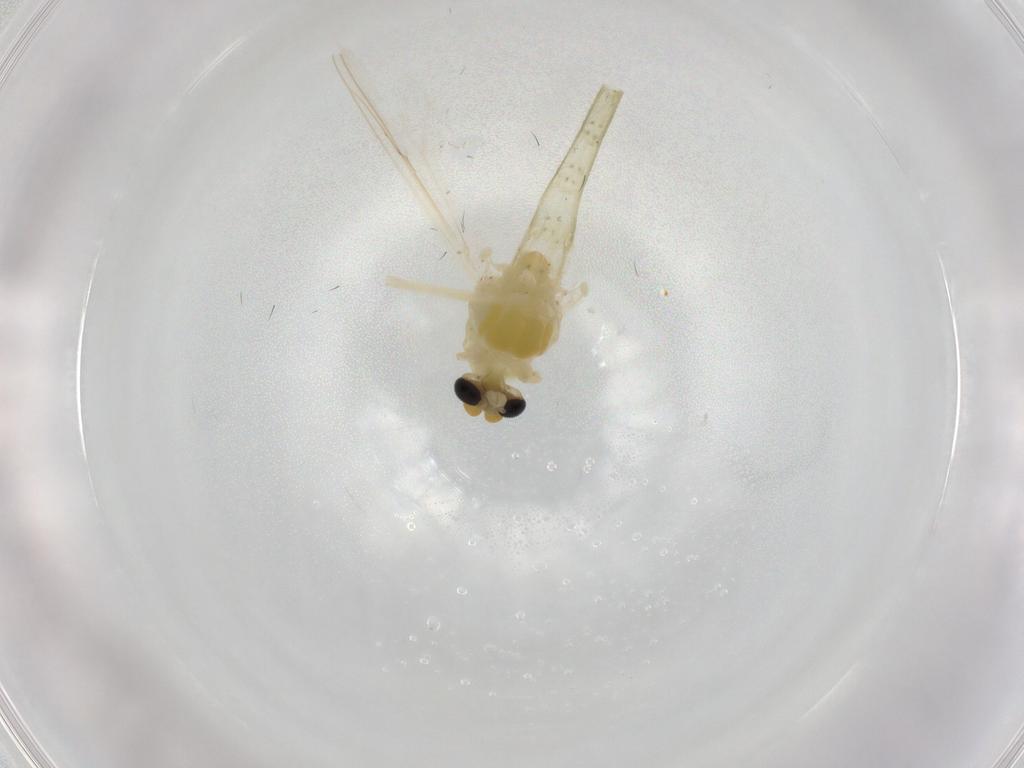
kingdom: Animalia
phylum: Arthropoda
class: Insecta
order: Diptera
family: Chironomidae
